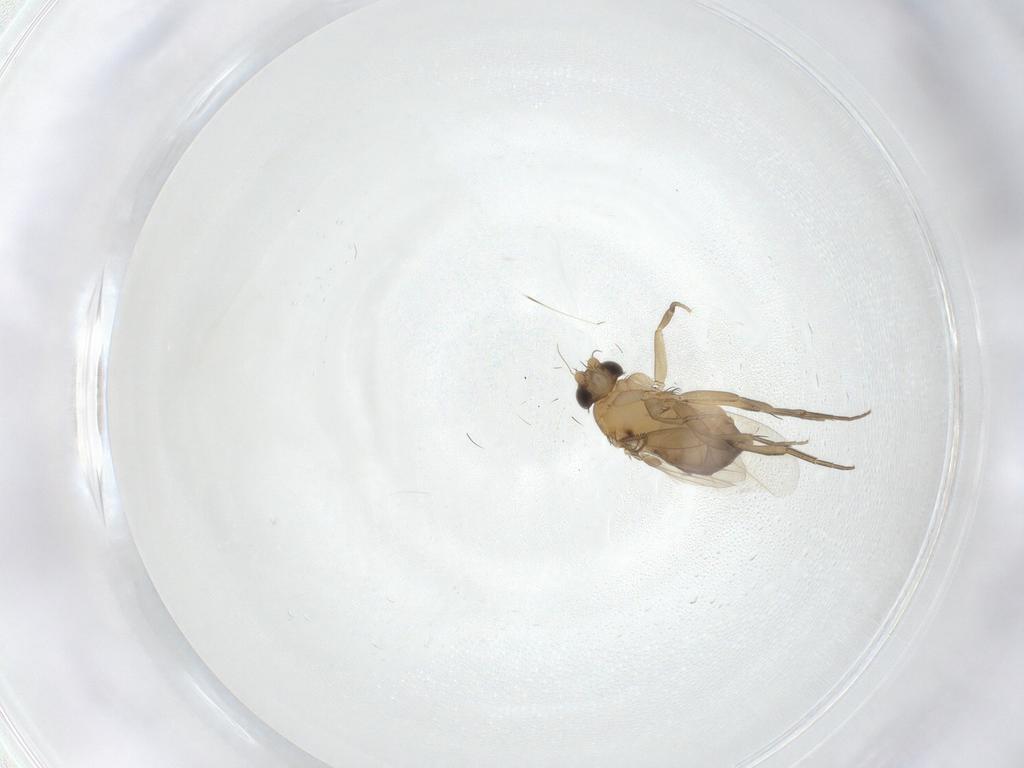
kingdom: Animalia
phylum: Arthropoda
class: Insecta
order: Diptera
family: Phoridae
